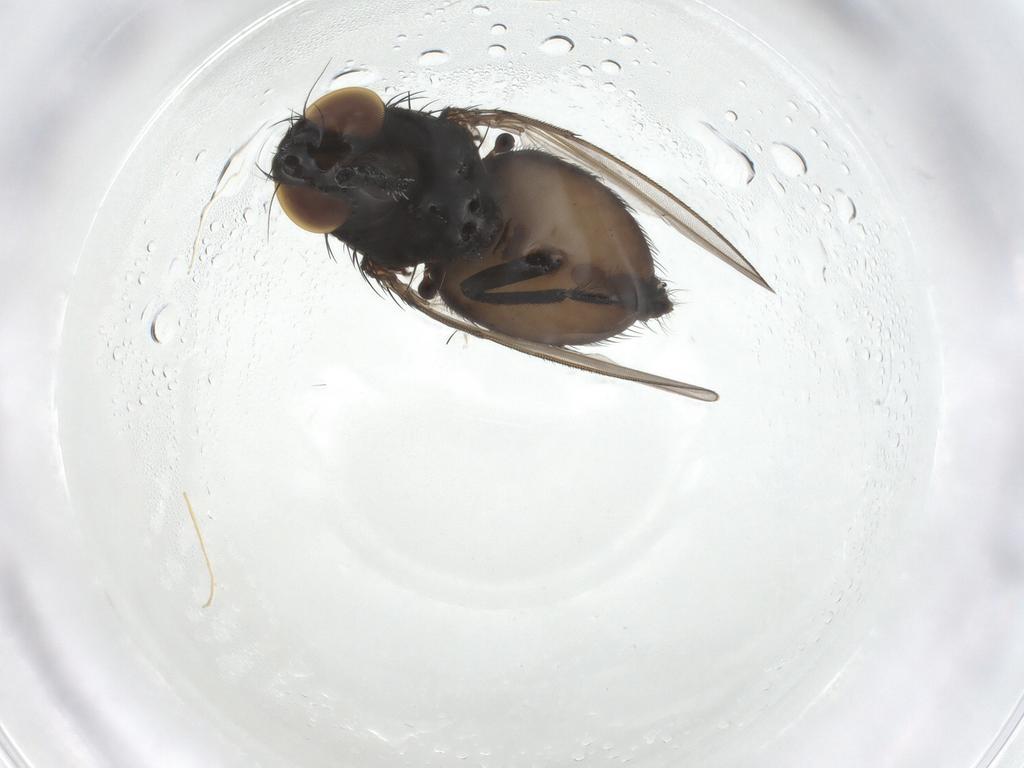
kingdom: Animalia
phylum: Arthropoda
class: Insecta
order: Diptera
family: Milichiidae
